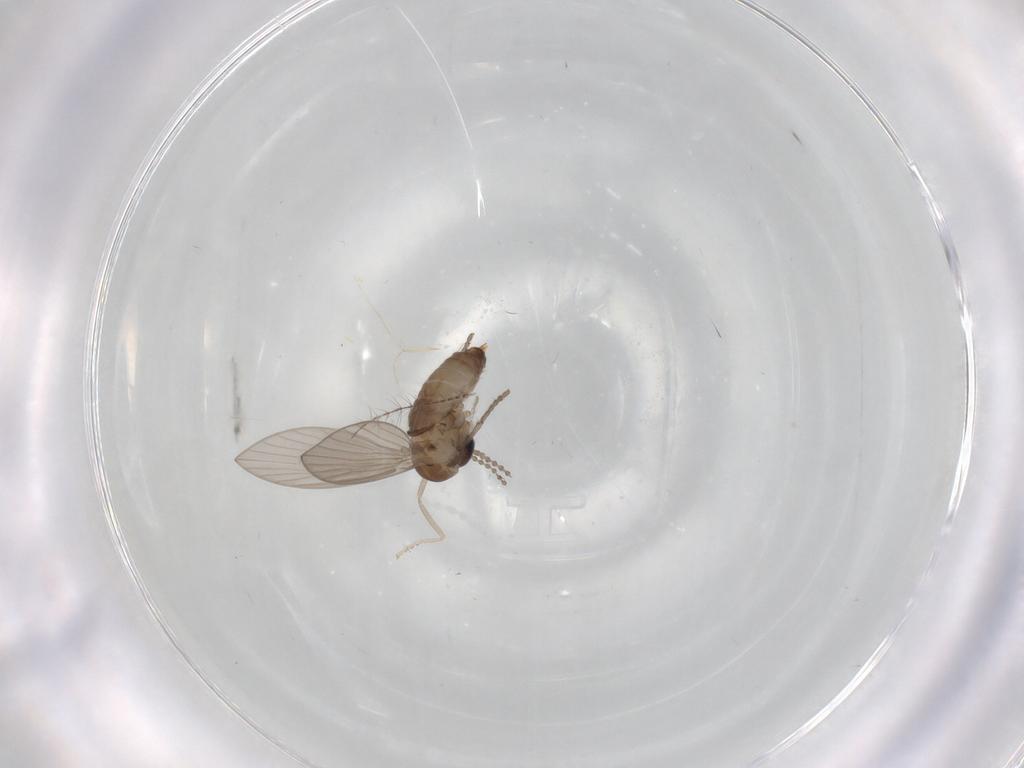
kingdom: Animalia
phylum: Arthropoda
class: Insecta
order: Diptera
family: Psychodidae
